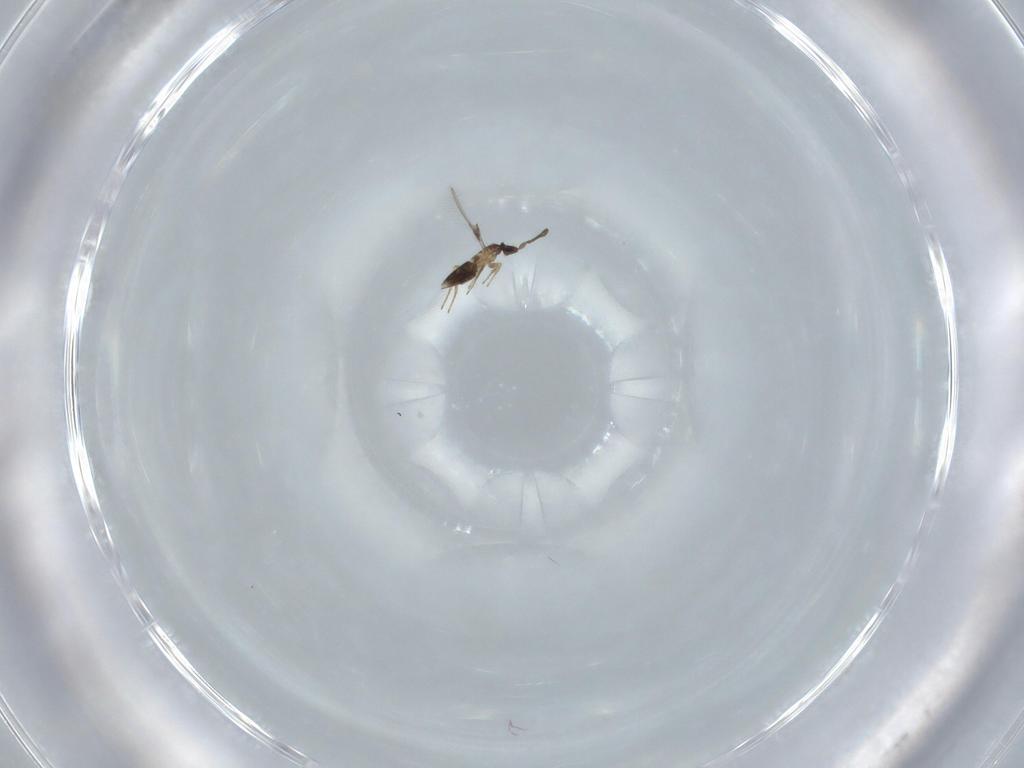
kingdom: Animalia
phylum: Arthropoda
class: Insecta
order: Hymenoptera
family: Mymaridae
